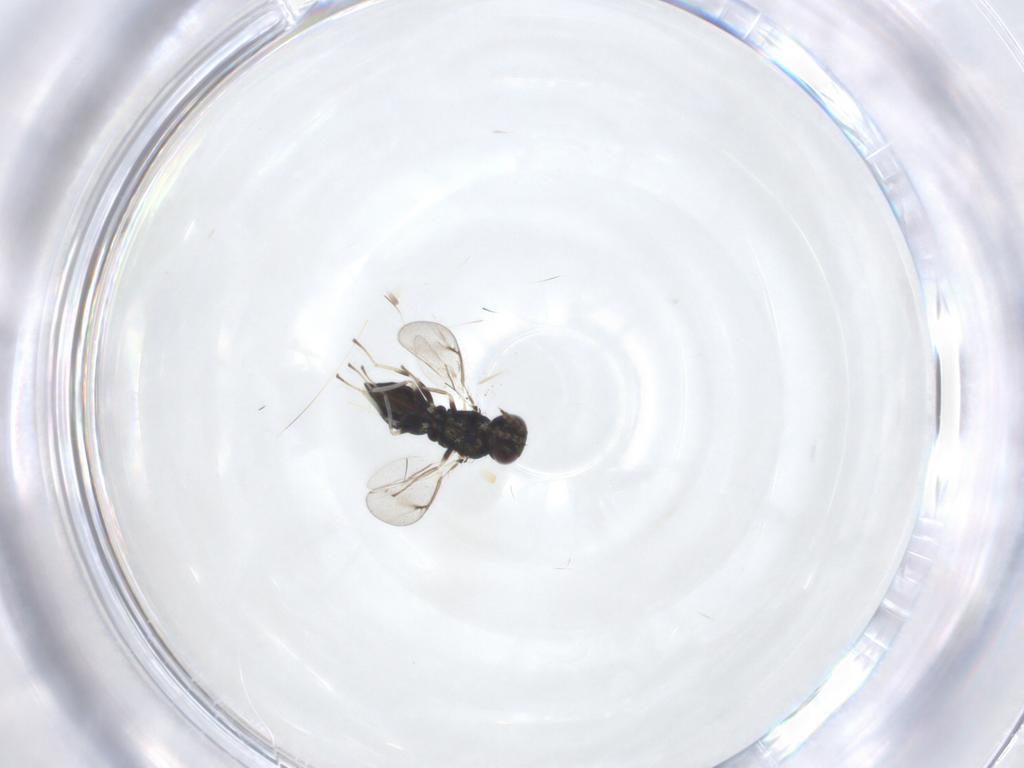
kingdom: Animalia
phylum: Arthropoda
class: Insecta
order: Hymenoptera
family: Eulophidae
